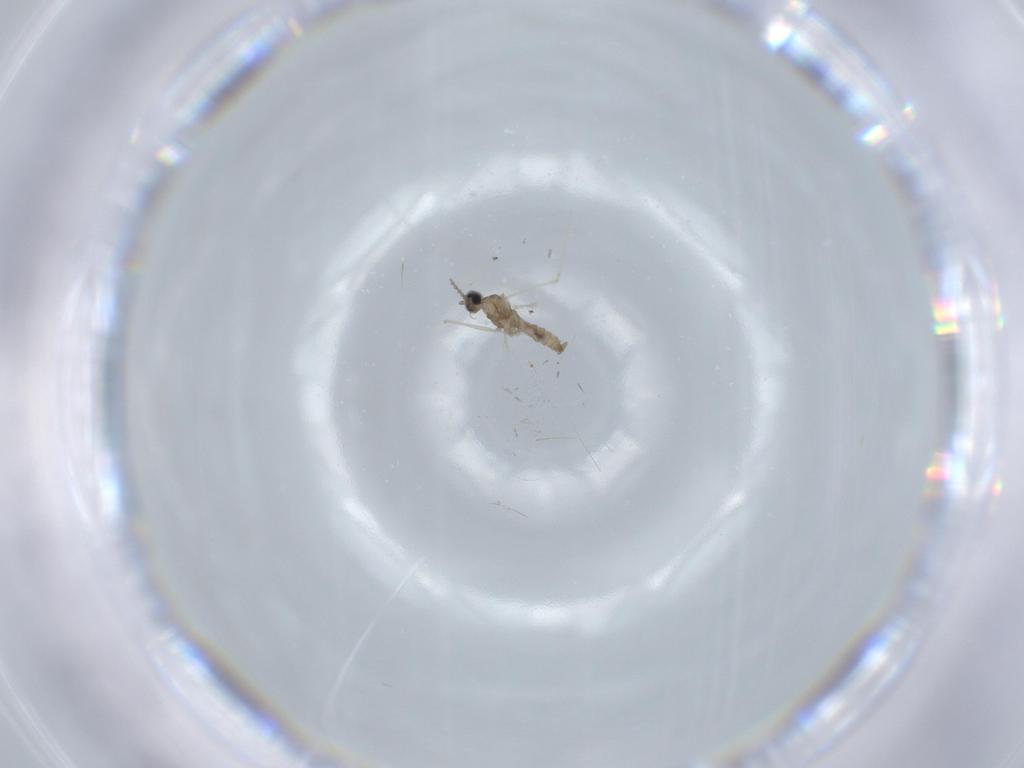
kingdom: Animalia
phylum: Arthropoda
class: Insecta
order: Diptera
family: Cecidomyiidae
